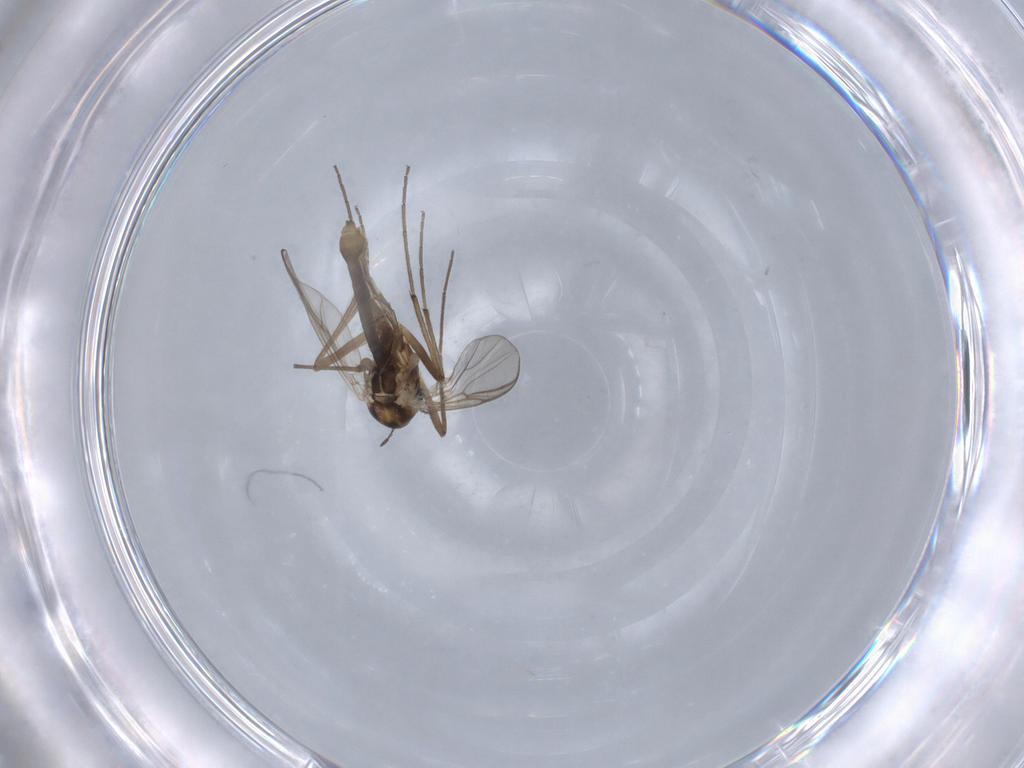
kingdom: Animalia
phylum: Arthropoda
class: Insecta
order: Diptera
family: Chironomidae
